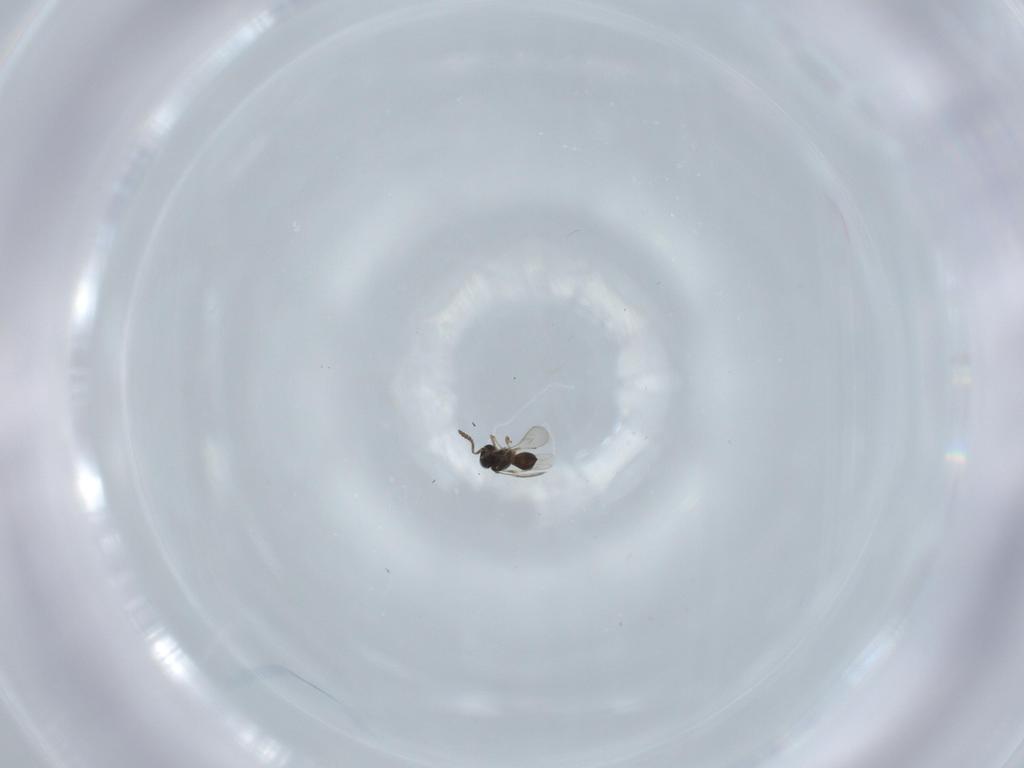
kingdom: Animalia
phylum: Arthropoda
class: Insecta
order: Hymenoptera
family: Scelionidae
